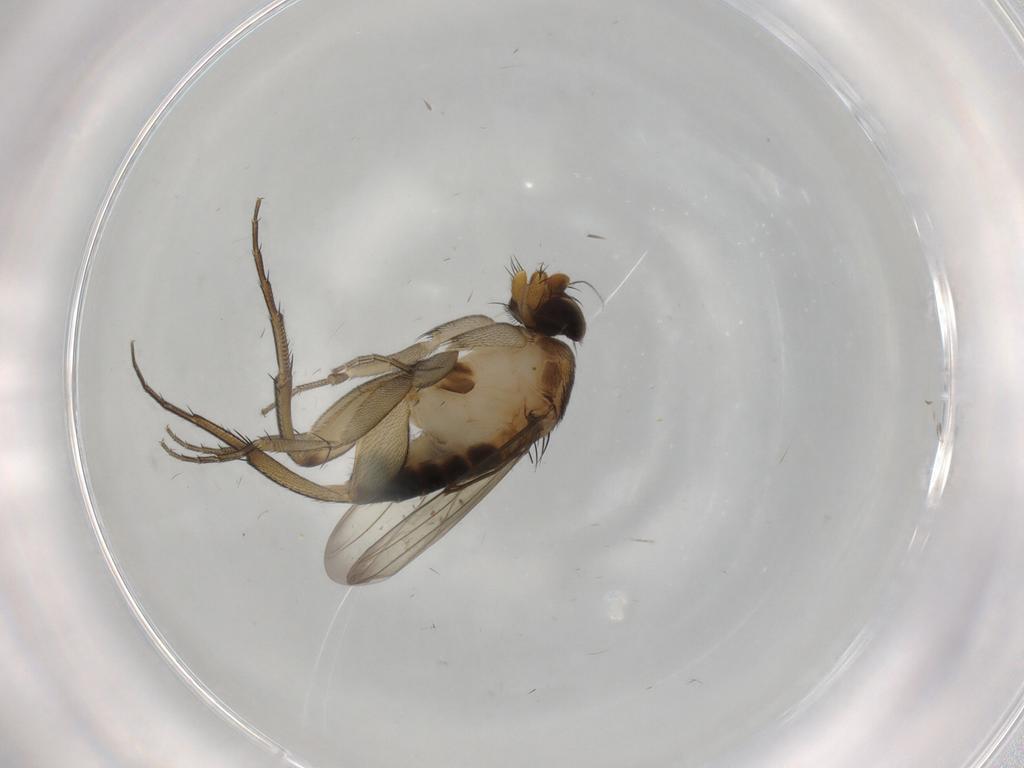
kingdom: Animalia
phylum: Arthropoda
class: Insecta
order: Diptera
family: Phoridae
